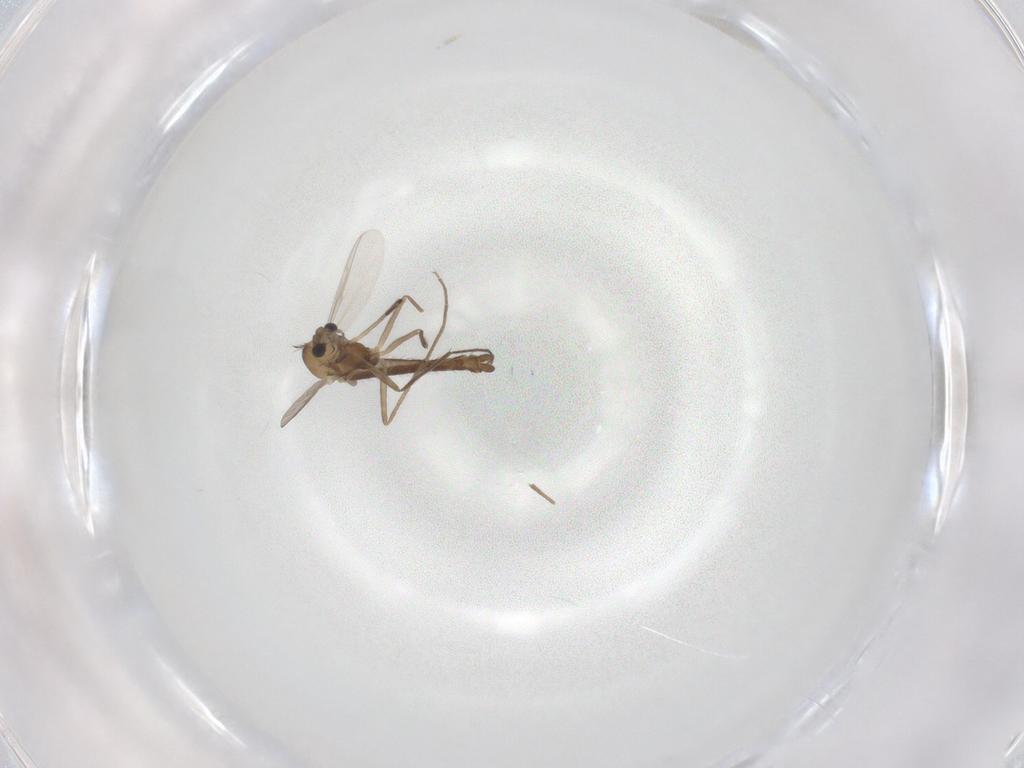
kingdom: Animalia
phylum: Arthropoda
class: Insecta
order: Diptera
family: Chironomidae
